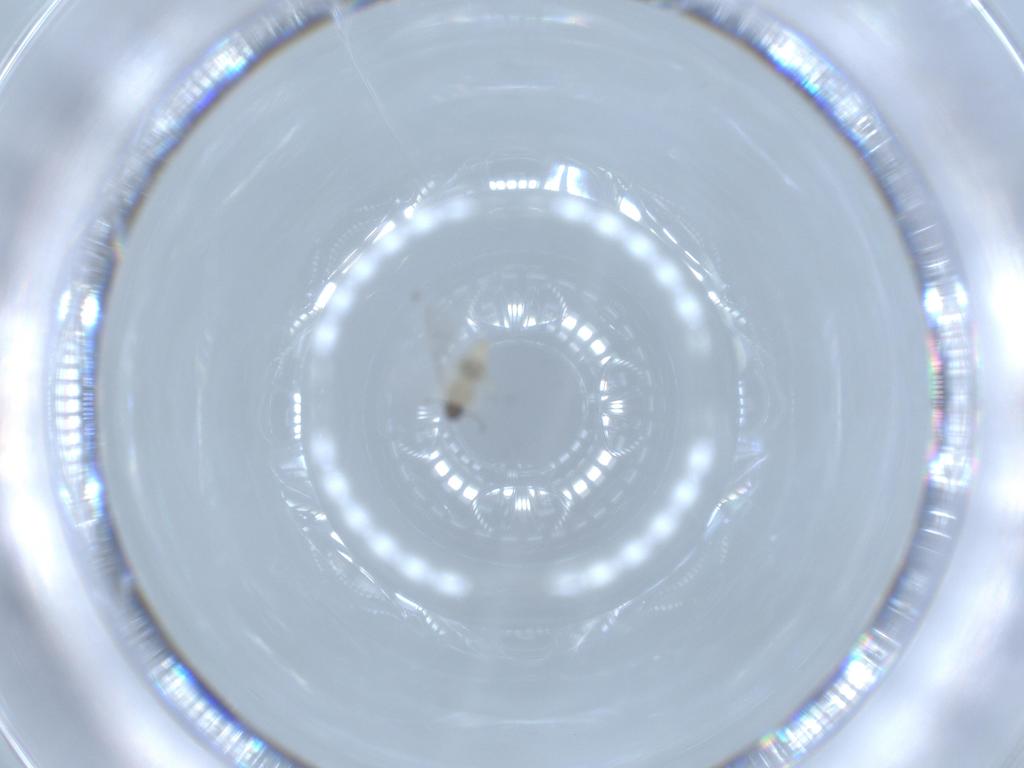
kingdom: Animalia
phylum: Arthropoda
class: Insecta
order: Diptera
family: Cecidomyiidae
